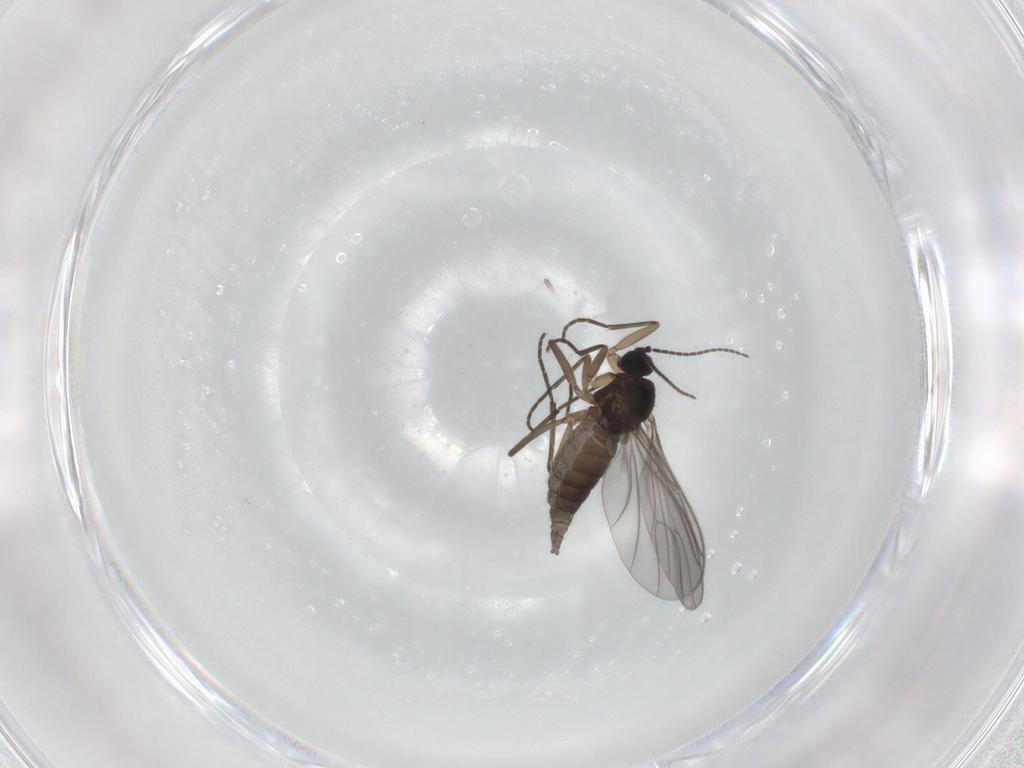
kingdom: Animalia
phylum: Arthropoda
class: Insecta
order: Diptera
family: Sciaridae
